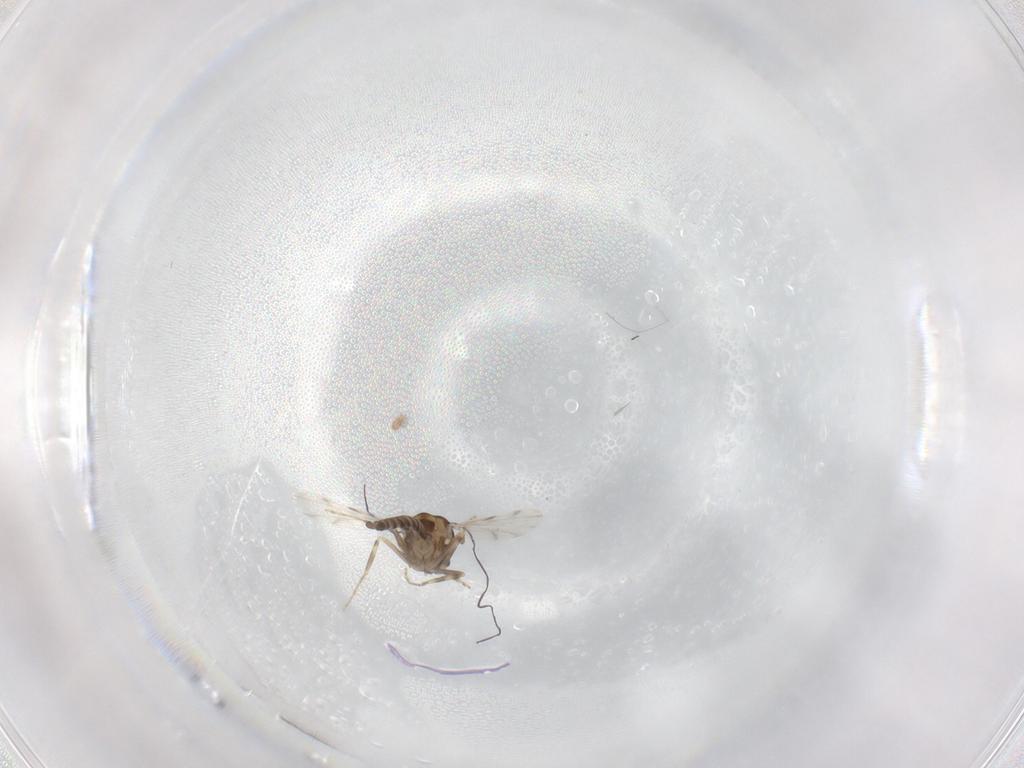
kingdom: Animalia
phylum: Arthropoda
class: Insecta
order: Diptera
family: Ceratopogonidae
